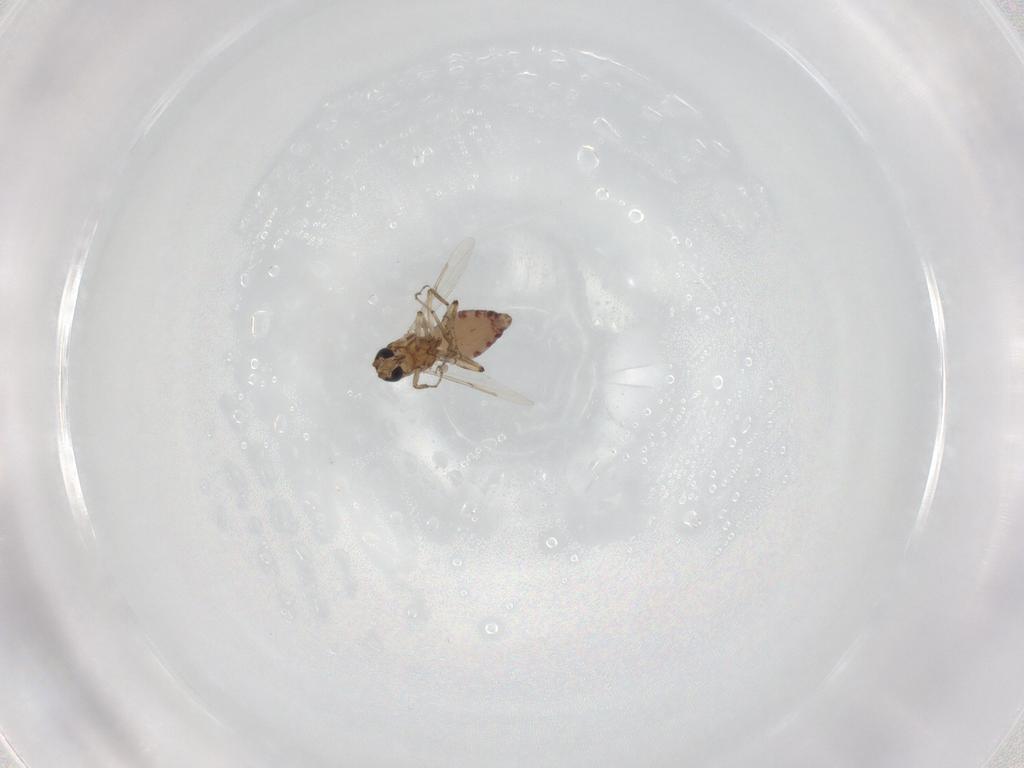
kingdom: Animalia
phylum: Arthropoda
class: Insecta
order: Diptera
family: Ceratopogonidae
